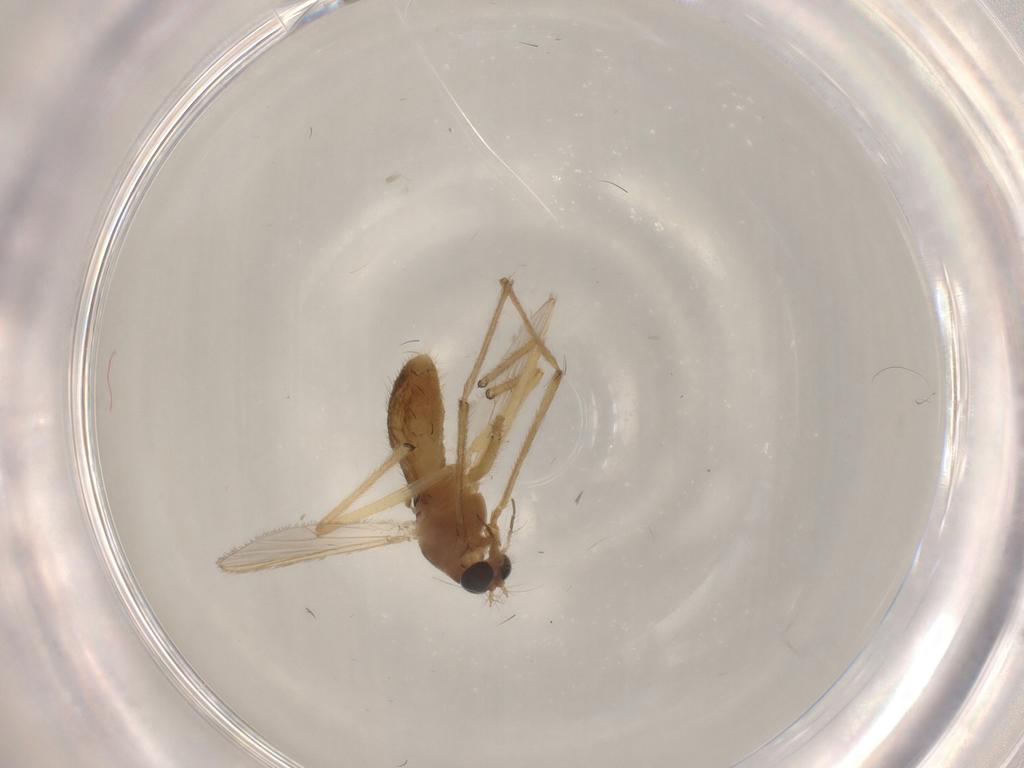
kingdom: Animalia
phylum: Arthropoda
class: Insecta
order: Diptera
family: Chironomidae
